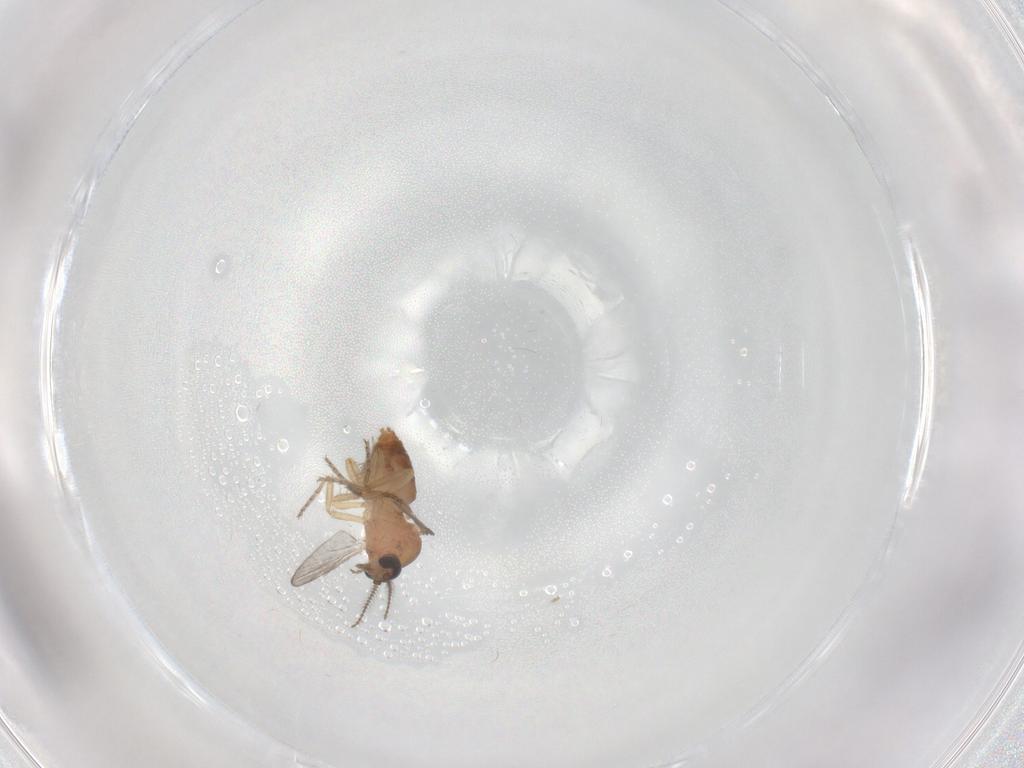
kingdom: Animalia
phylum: Arthropoda
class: Insecta
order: Diptera
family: Ceratopogonidae
